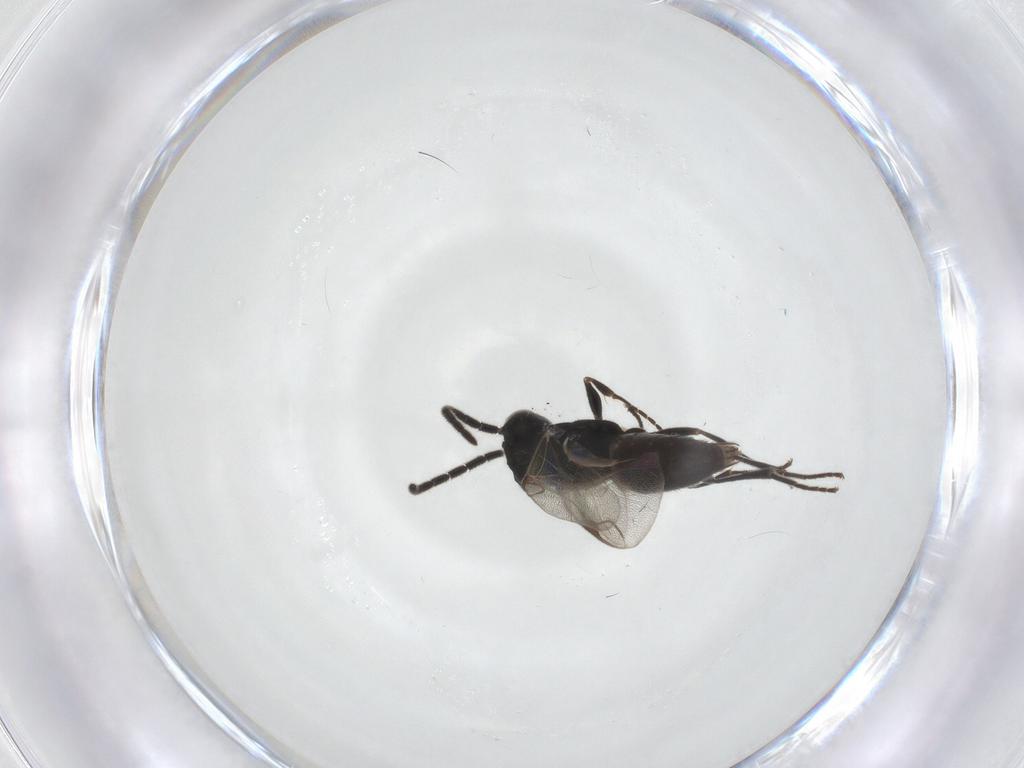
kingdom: Animalia
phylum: Arthropoda
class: Insecta
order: Hymenoptera
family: Dryinidae
